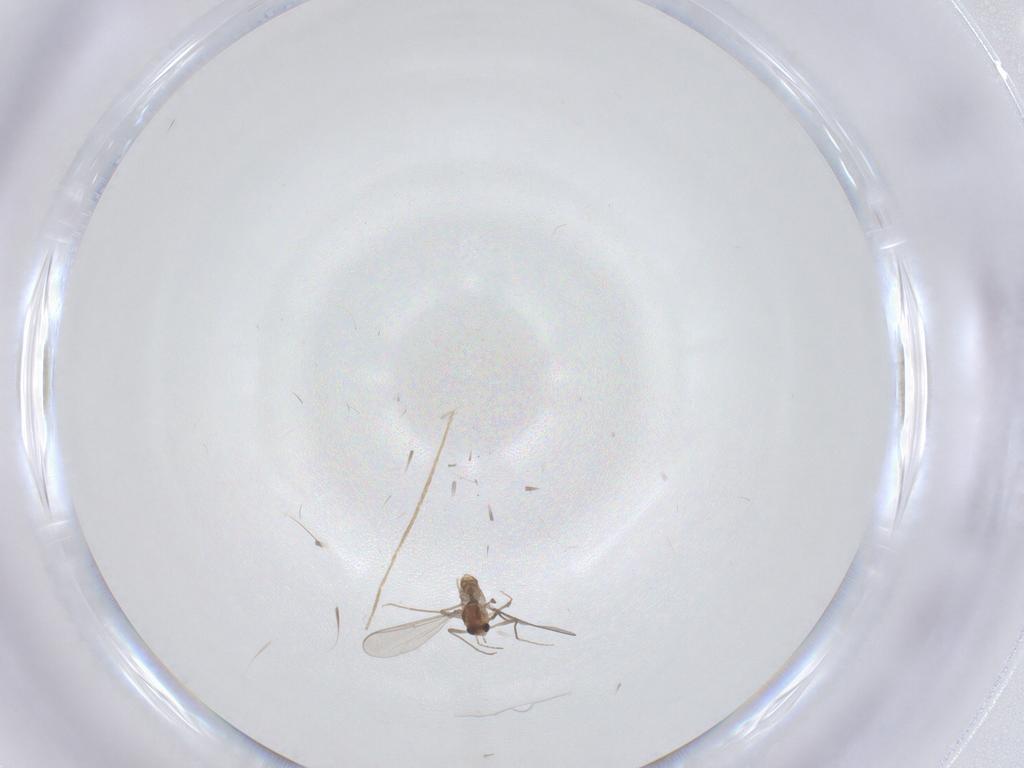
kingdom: Animalia
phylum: Arthropoda
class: Insecta
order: Diptera
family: Chironomidae
